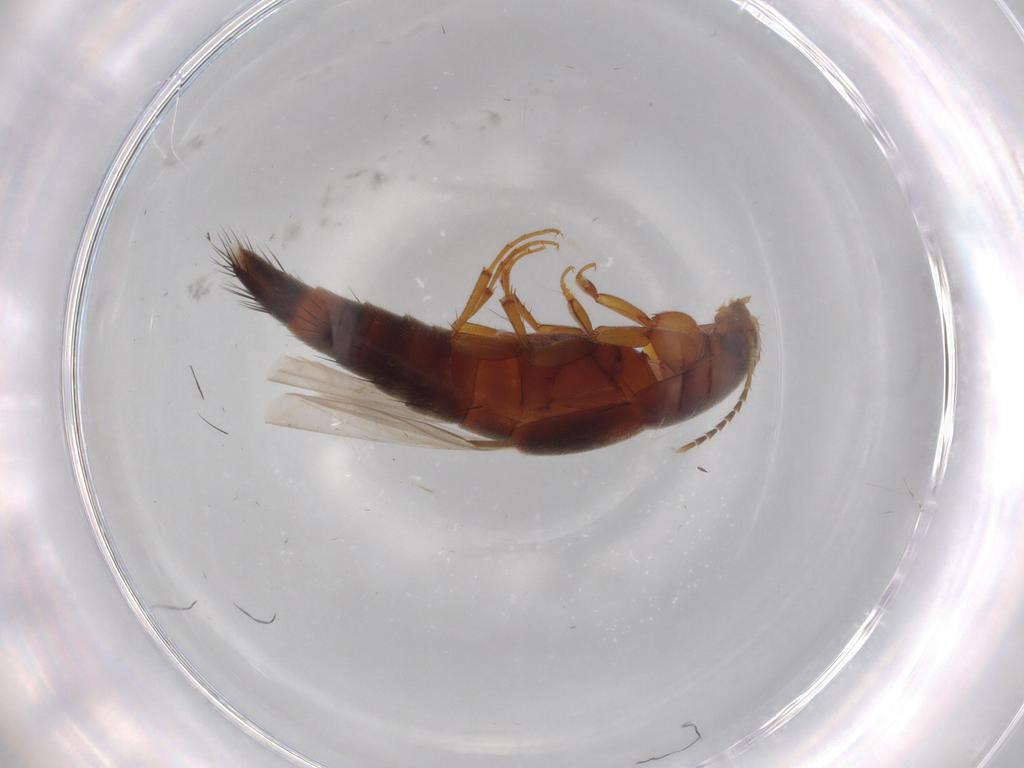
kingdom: Animalia
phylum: Arthropoda
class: Insecta
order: Coleoptera
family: Staphylinidae
